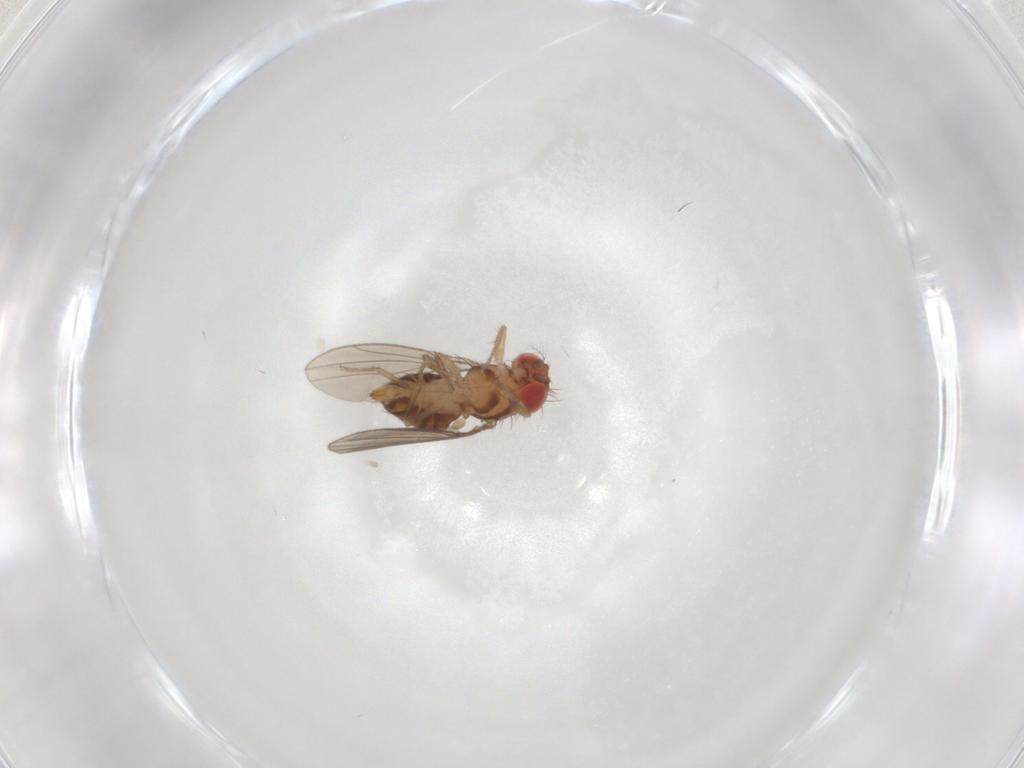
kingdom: Animalia
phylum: Arthropoda
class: Insecta
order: Diptera
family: Drosophilidae
